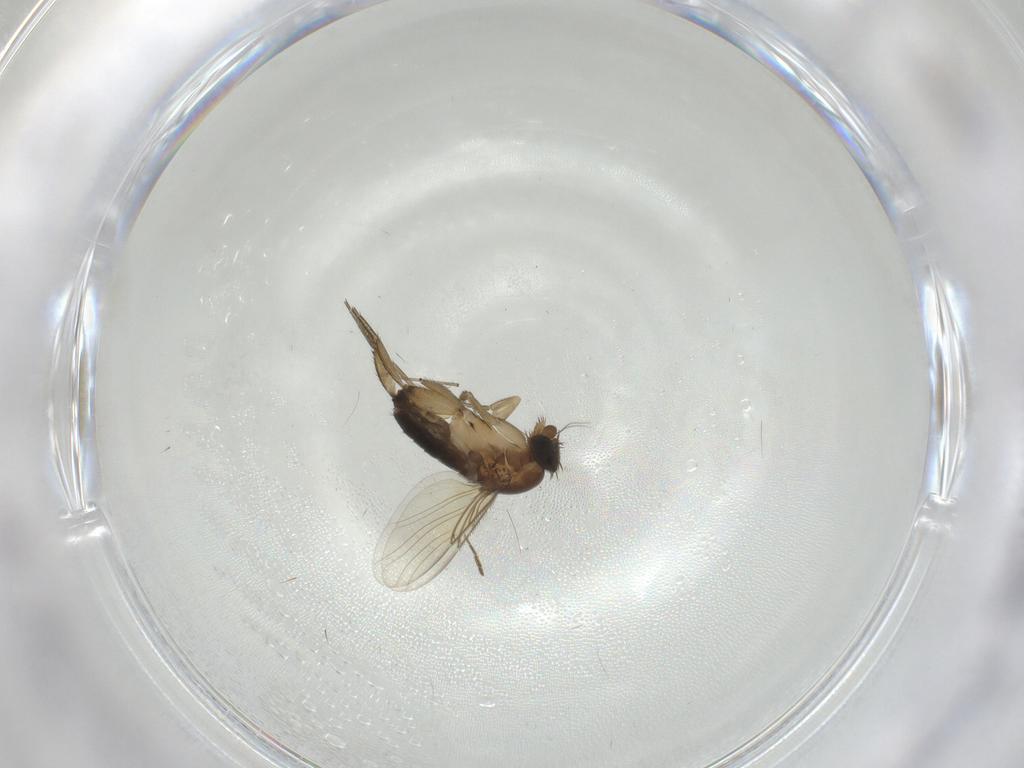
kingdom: Animalia
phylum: Arthropoda
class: Insecta
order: Diptera
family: Phoridae
